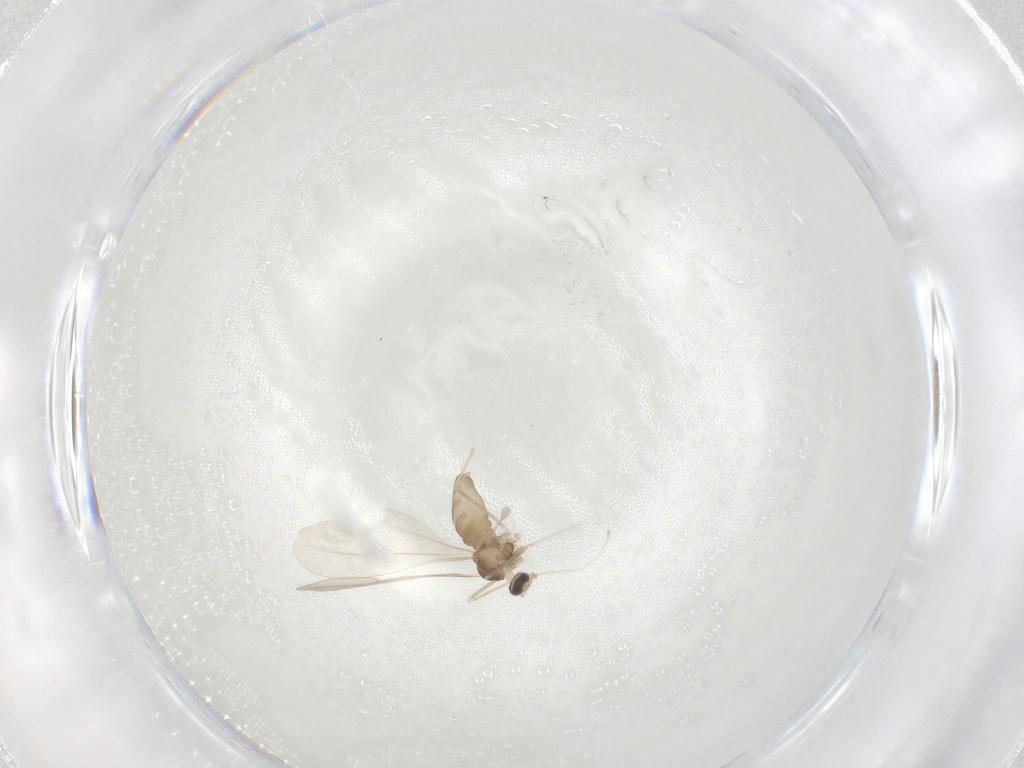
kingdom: Animalia
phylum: Arthropoda
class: Insecta
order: Diptera
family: Cecidomyiidae
